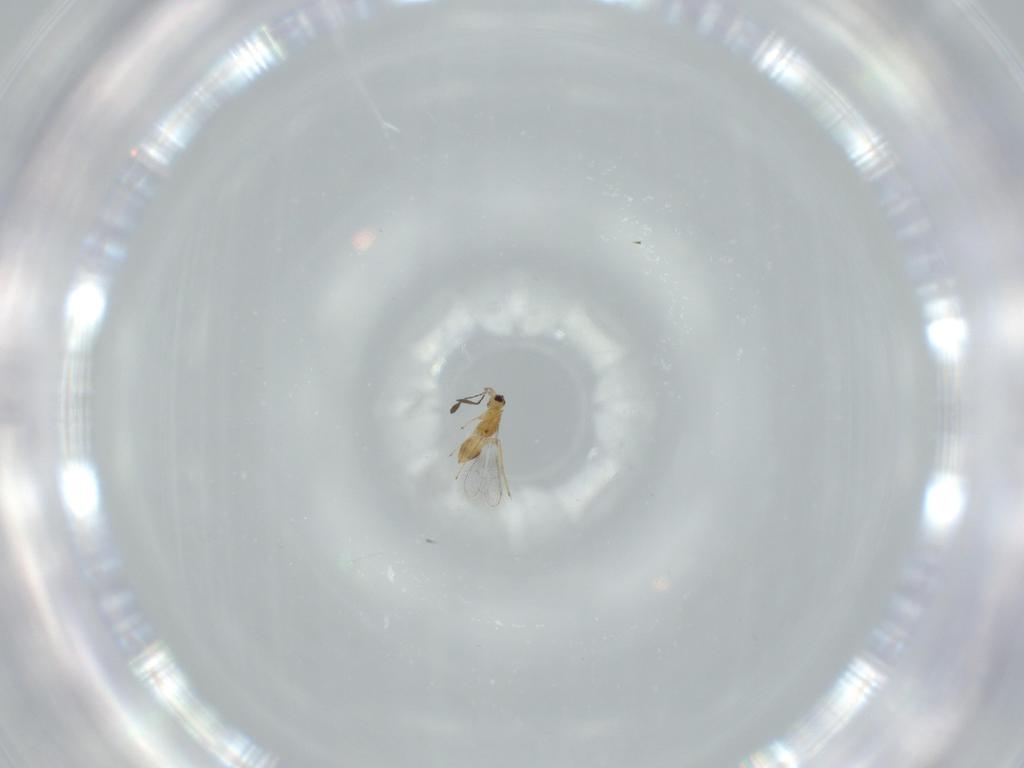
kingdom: Animalia
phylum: Arthropoda
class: Insecta
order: Hymenoptera
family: Mymaridae
